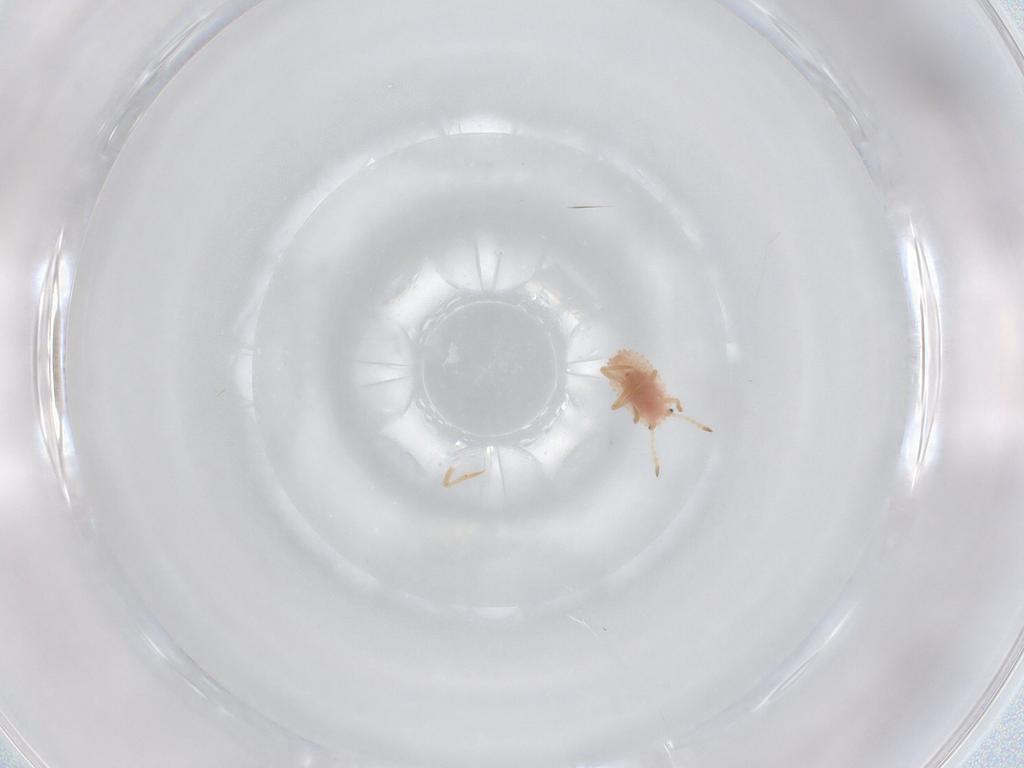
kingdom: Animalia
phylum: Arthropoda
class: Insecta
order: Hemiptera
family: Coccoidea_incertae_sedis
